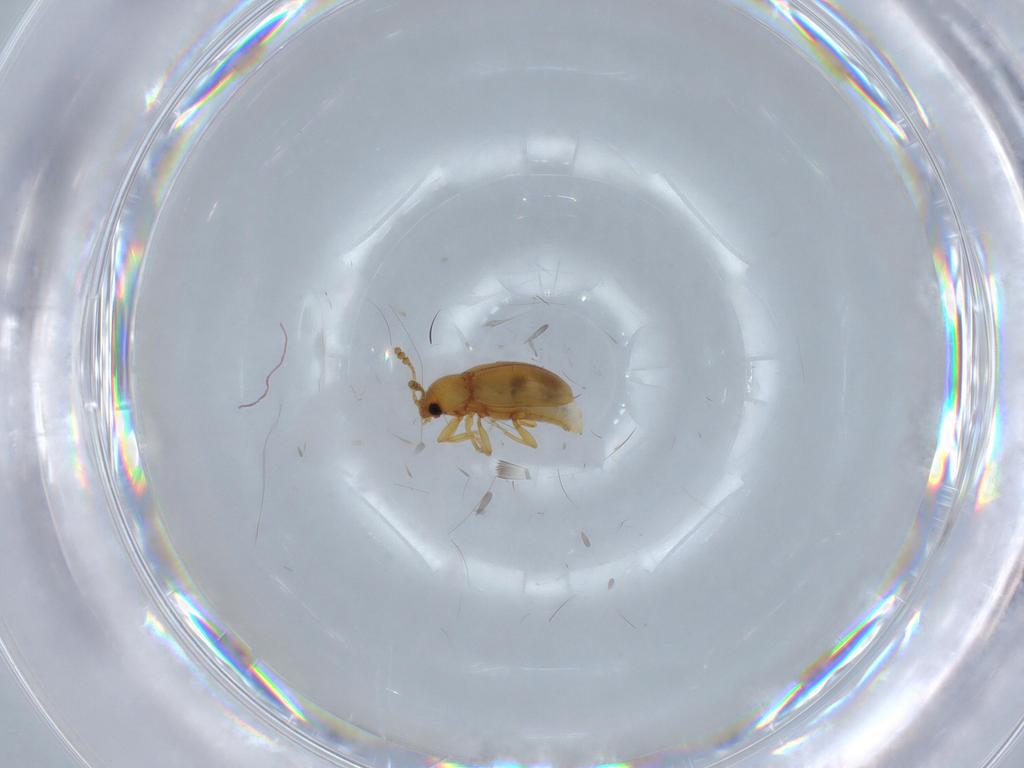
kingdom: Animalia
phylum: Arthropoda
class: Insecta
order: Coleoptera
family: Erotylidae
